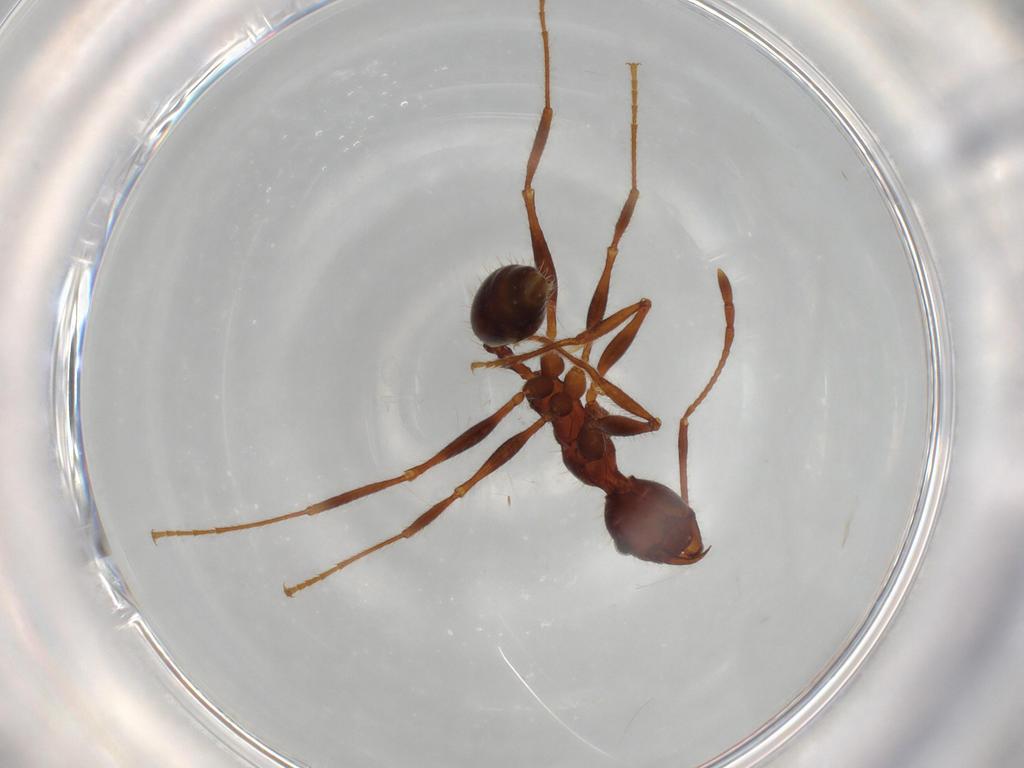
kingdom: Animalia
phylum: Arthropoda
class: Insecta
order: Hymenoptera
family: Formicidae
